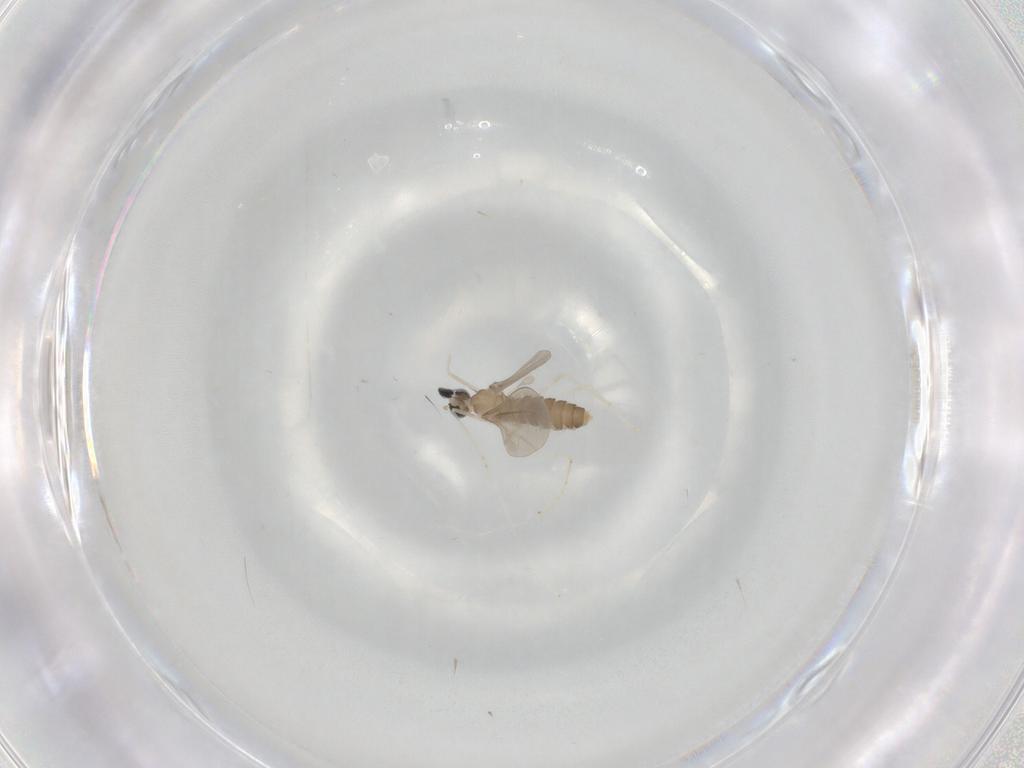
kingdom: Animalia
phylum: Arthropoda
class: Insecta
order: Diptera
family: Cecidomyiidae
